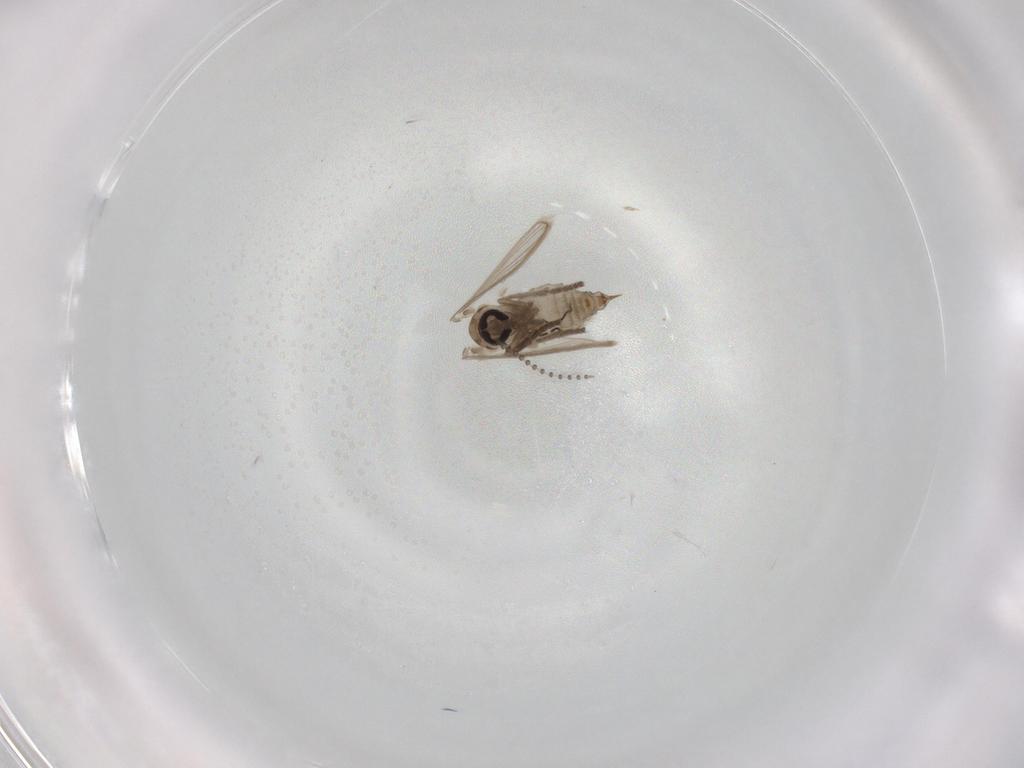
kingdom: Animalia
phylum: Arthropoda
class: Insecta
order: Diptera
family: Psychodidae
